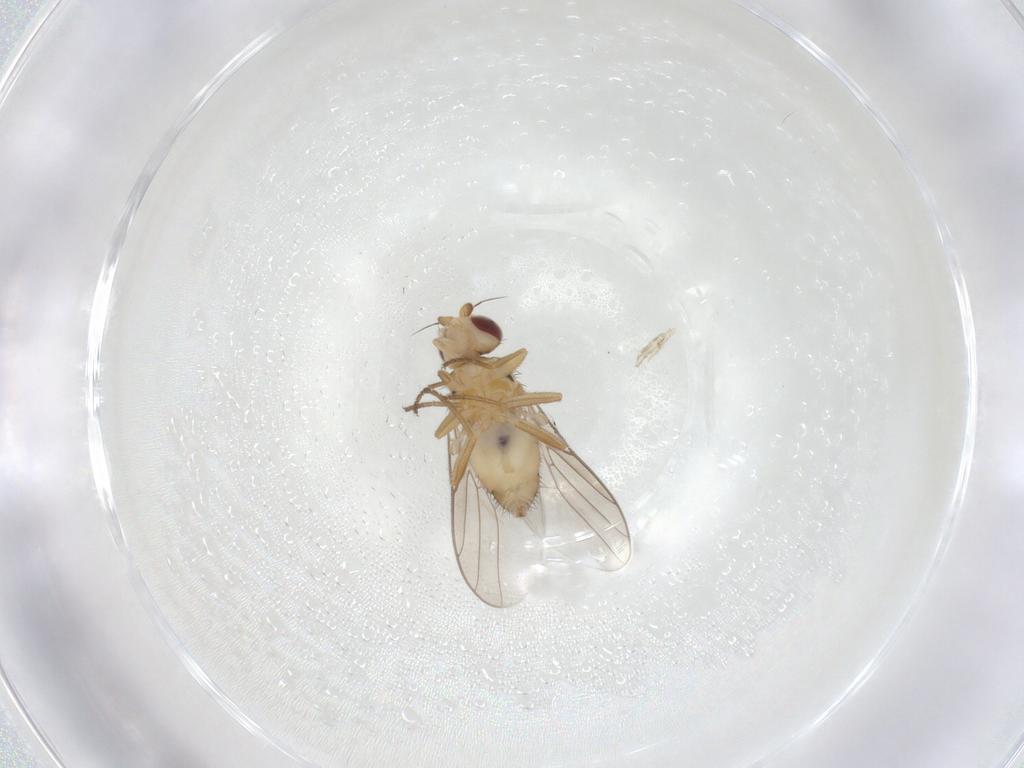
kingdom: Animalia
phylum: Arthropoda
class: Insecta
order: Diptera
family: Chloropidae
